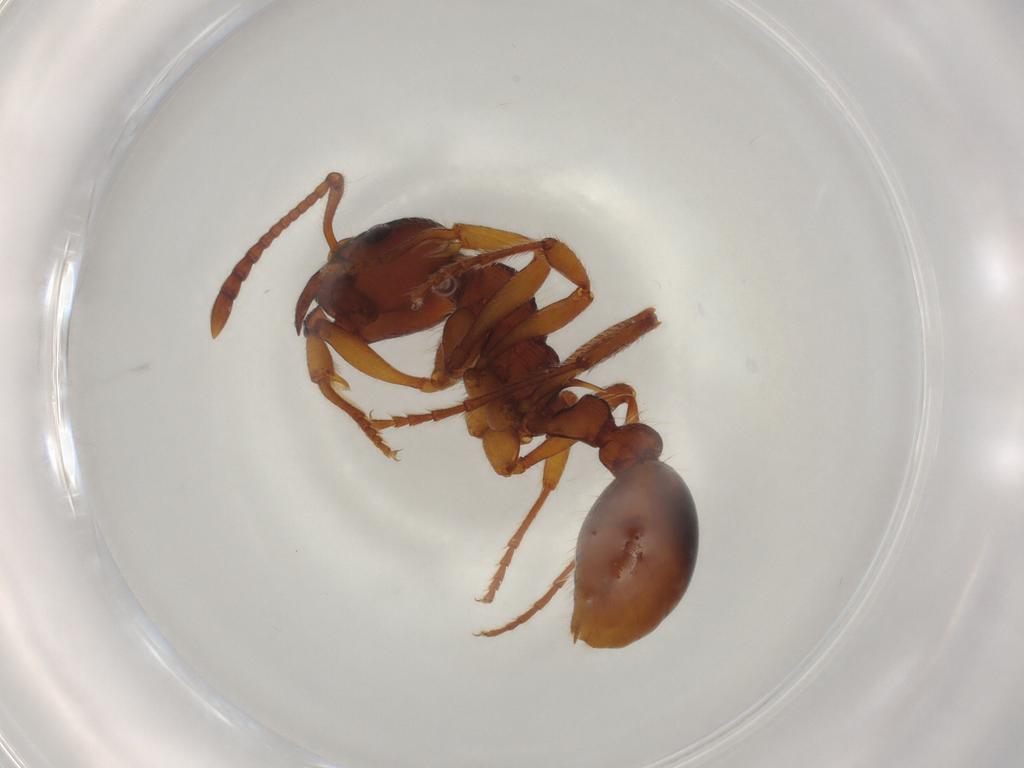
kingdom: Animalia
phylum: Arthropoda
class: Insecta
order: Hymenoptera
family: Formicidae
